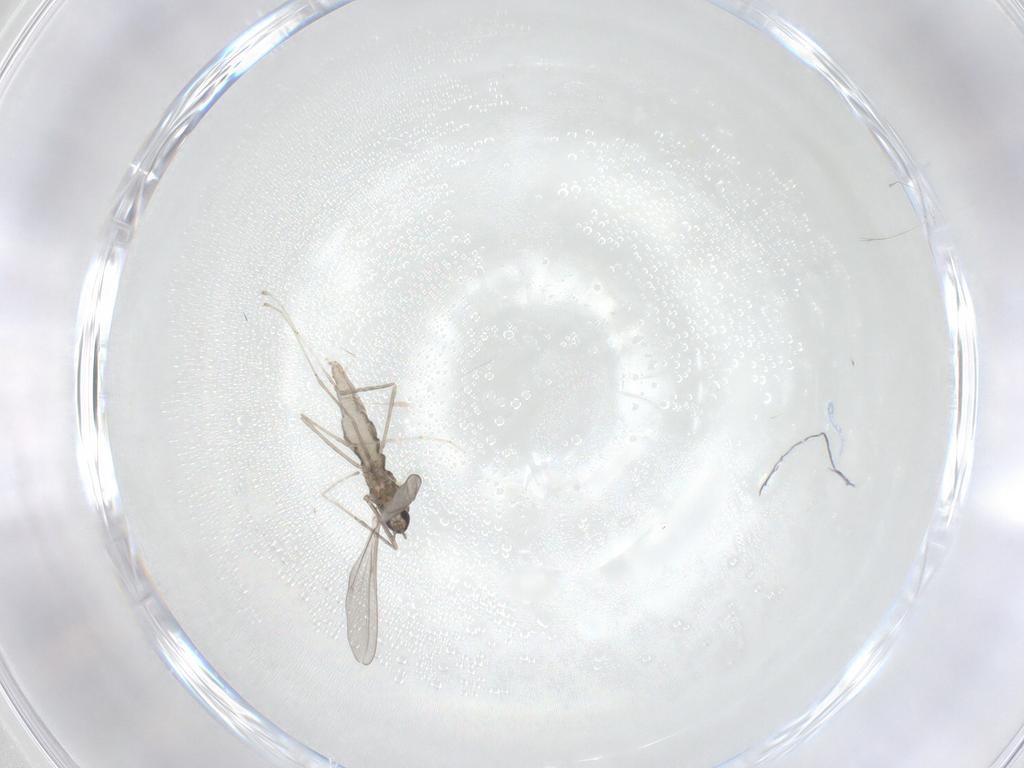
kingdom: Animalia
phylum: Arthropoda
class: Insecta
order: Diptera
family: Cecidomyiidae
